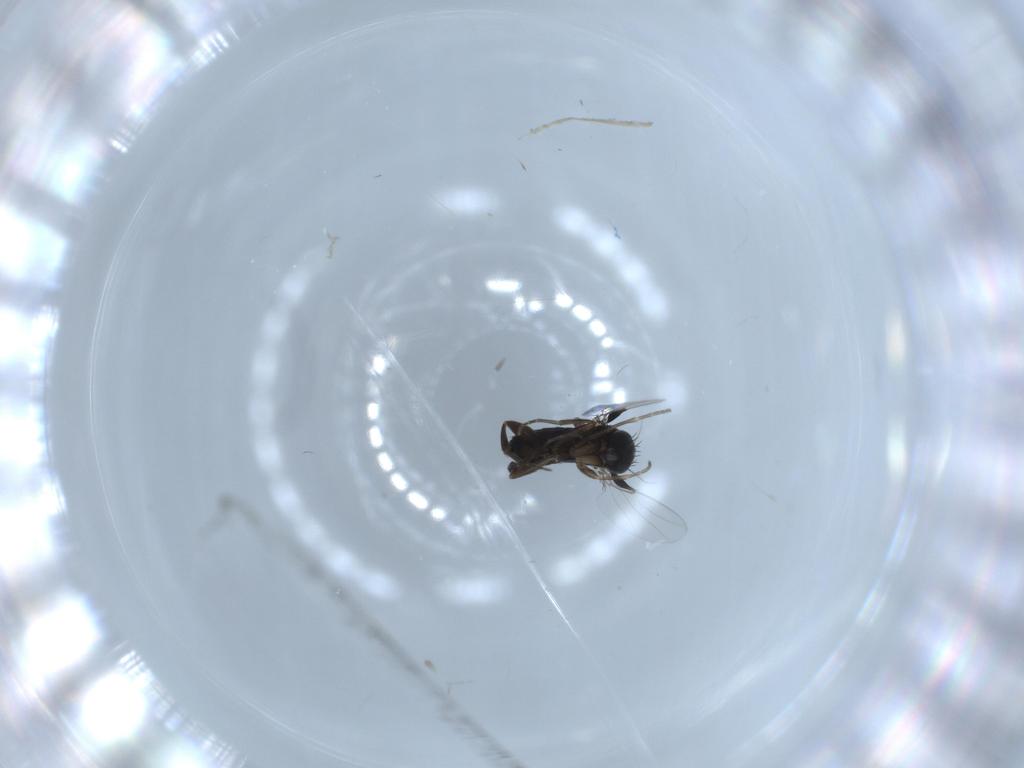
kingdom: Animalia
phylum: Arthropoda
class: Insecta
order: Diptera
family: Phoridae
